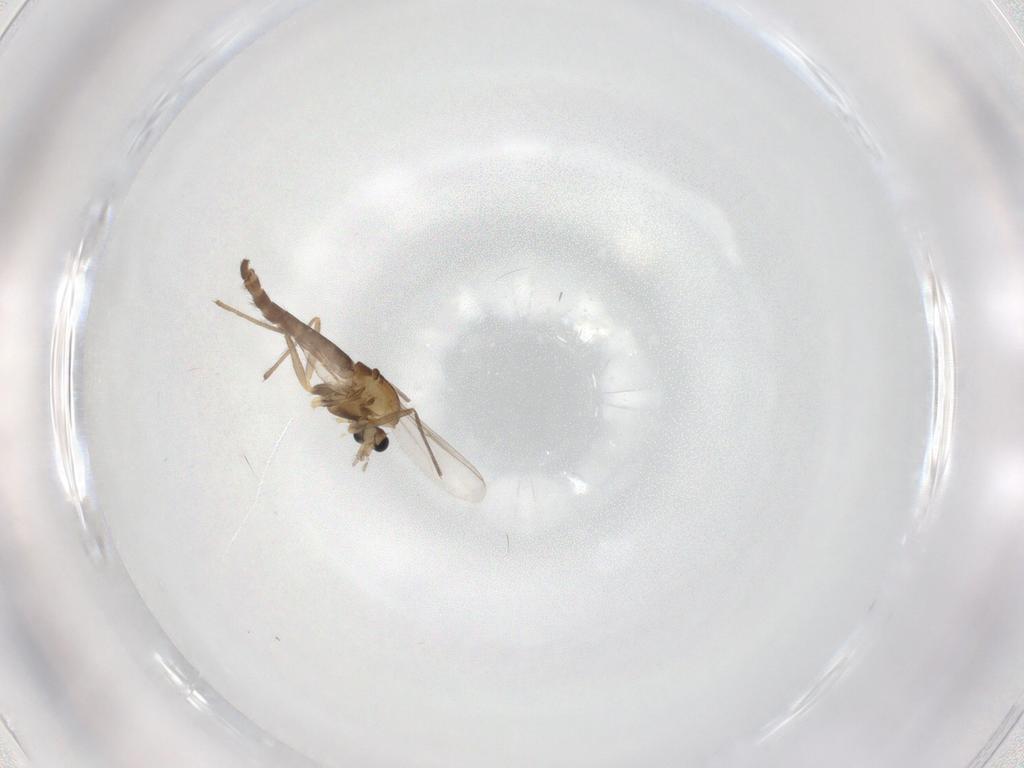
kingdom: Animalia
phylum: Arthropoda
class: Insecta
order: Diptera
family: Chironomidae
